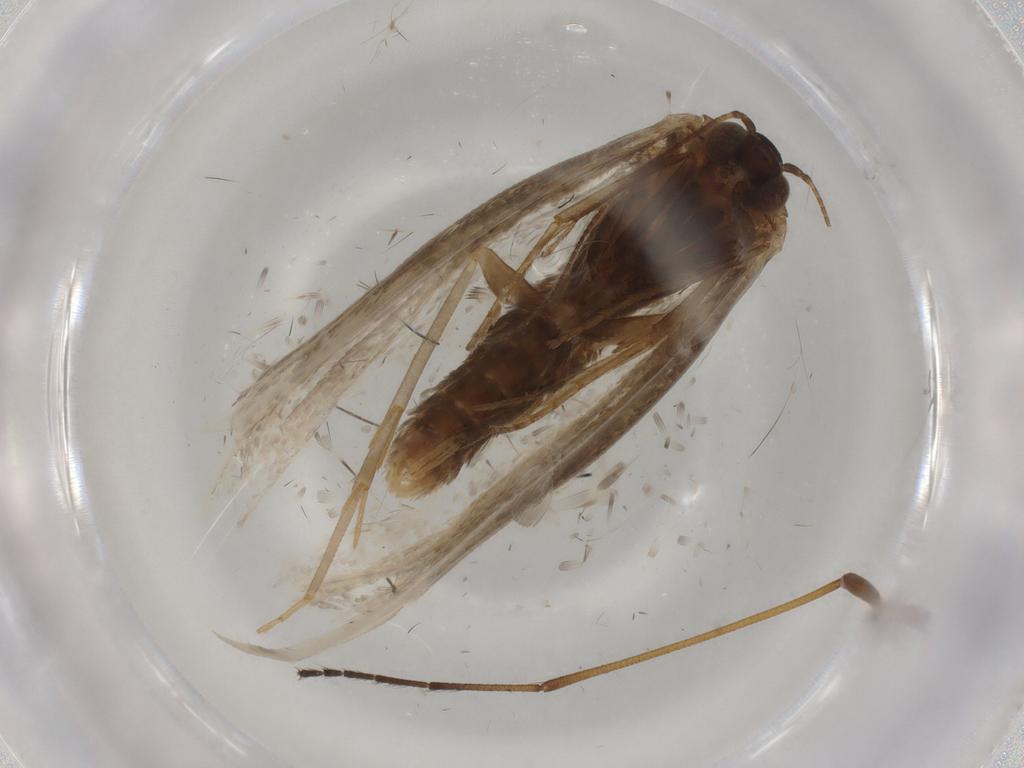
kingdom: Animalia
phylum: Arthropoda
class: Insecta
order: Lepidoptera
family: Tortricidae
